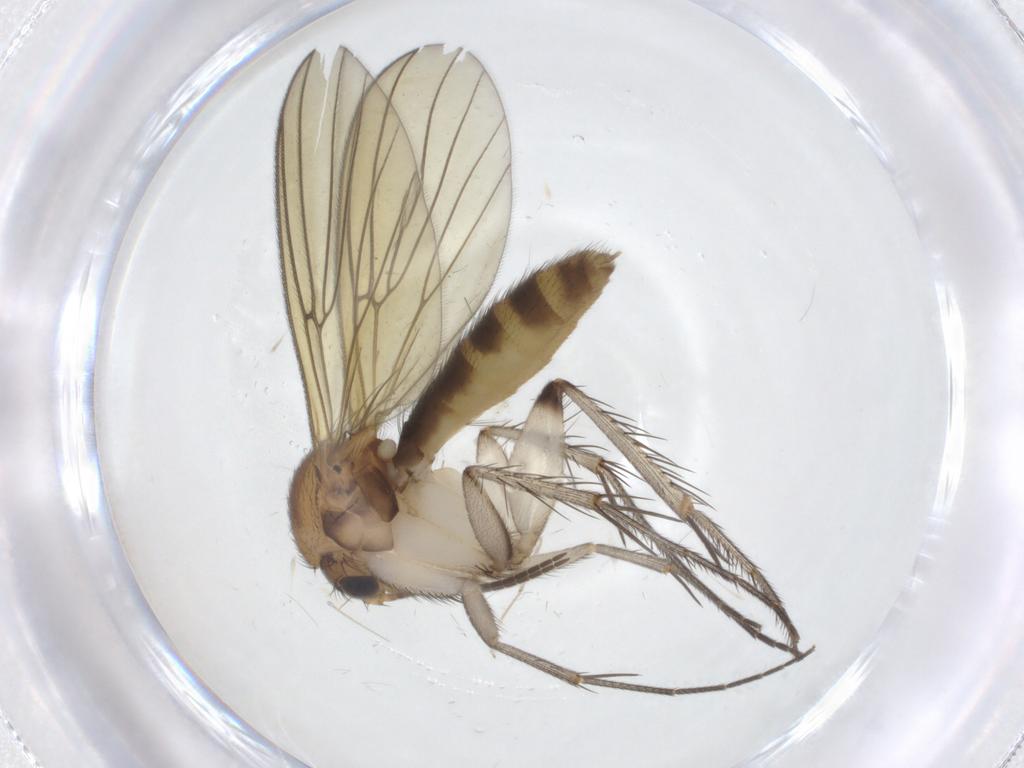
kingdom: Animalia
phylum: Arthropoda
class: Insecta
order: Diptera
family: Mycetophilidae
